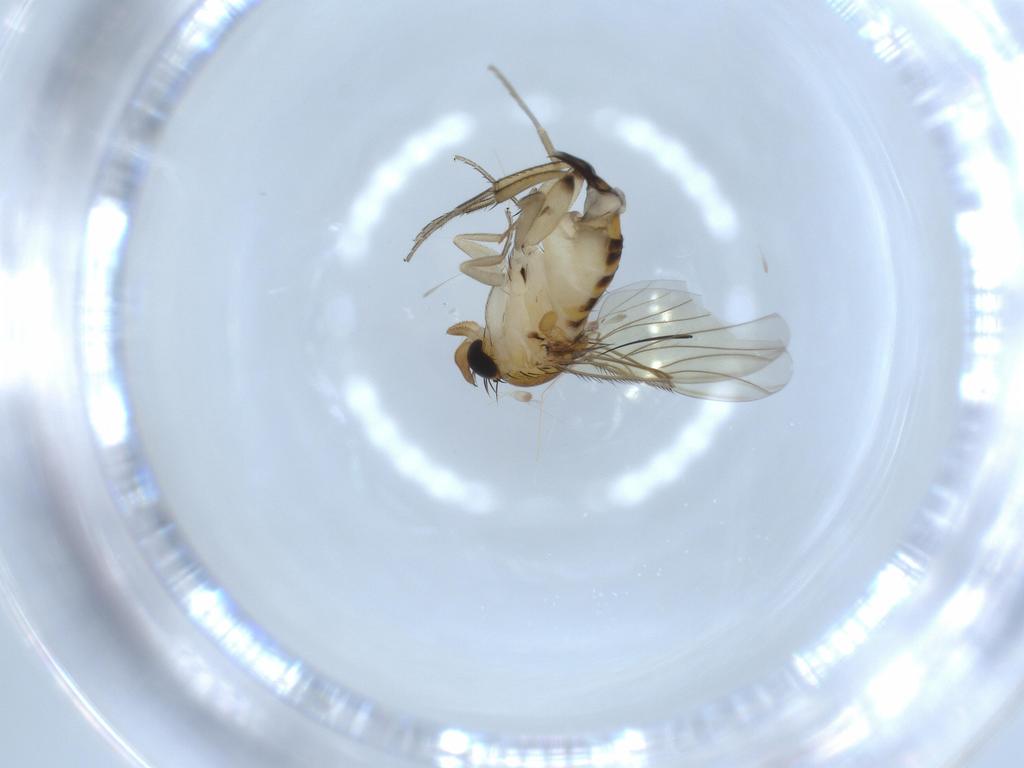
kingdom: Animalia
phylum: Arthropoda
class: Insecta
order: Diptera
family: Phoridae
